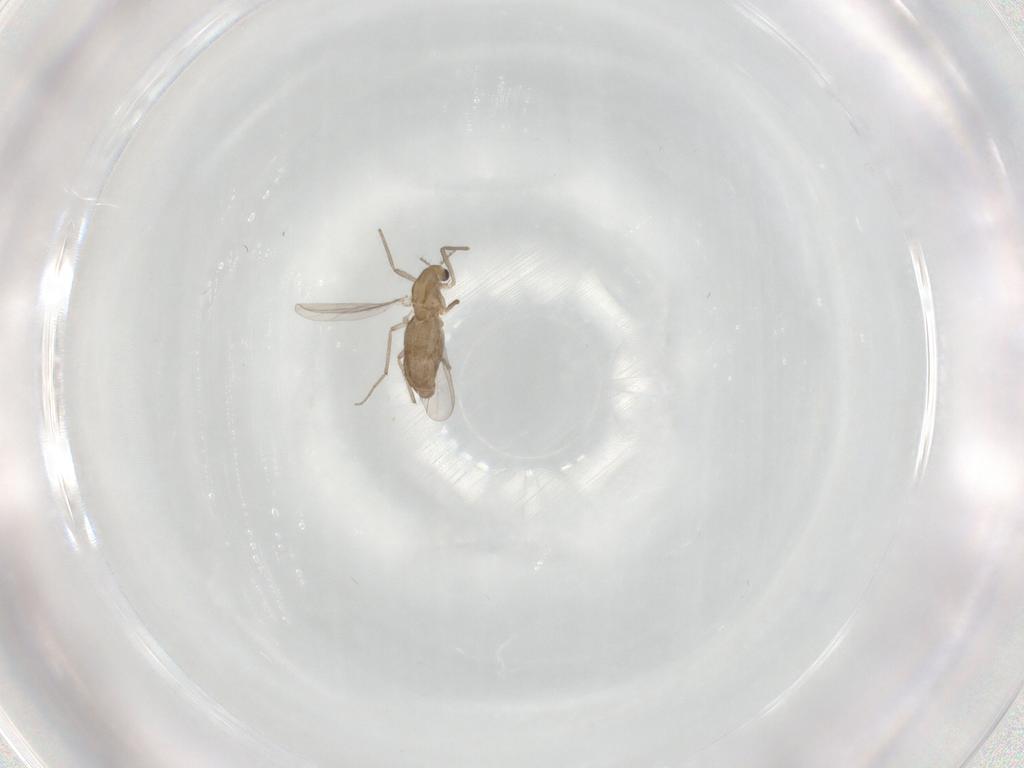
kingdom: Animalia
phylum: Arthropoda
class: Insecta
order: Diptera
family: Chironomidae
